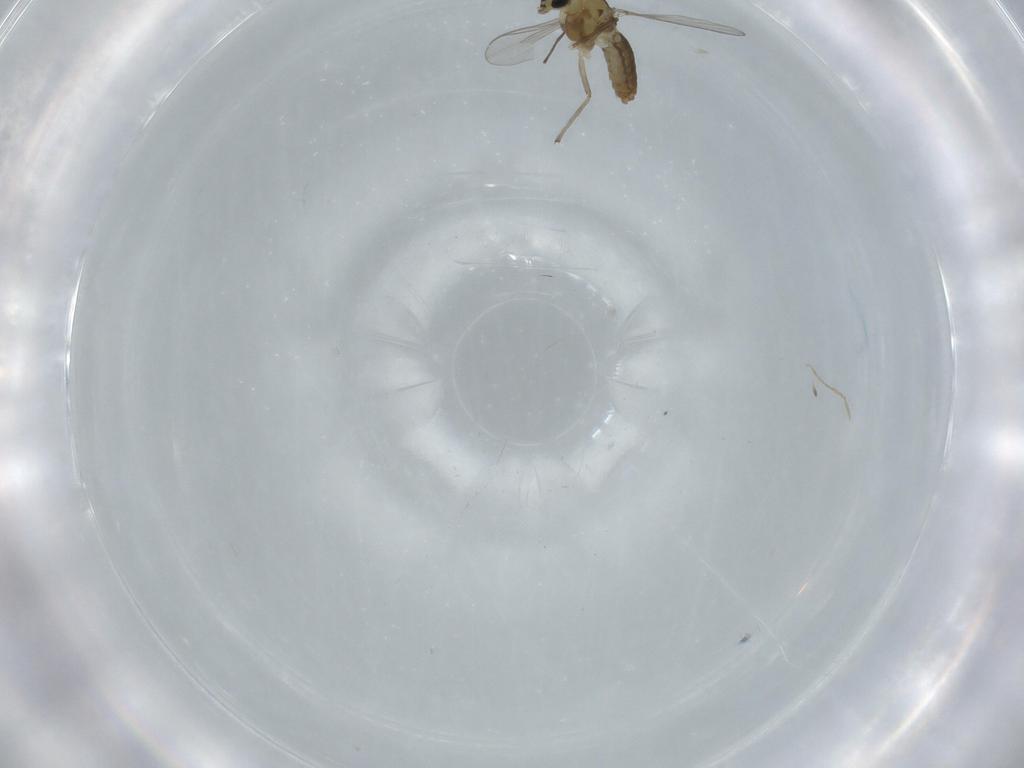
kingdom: Animalia
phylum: Arthropoda
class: Insecta
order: Diptera
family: Chironomidae
